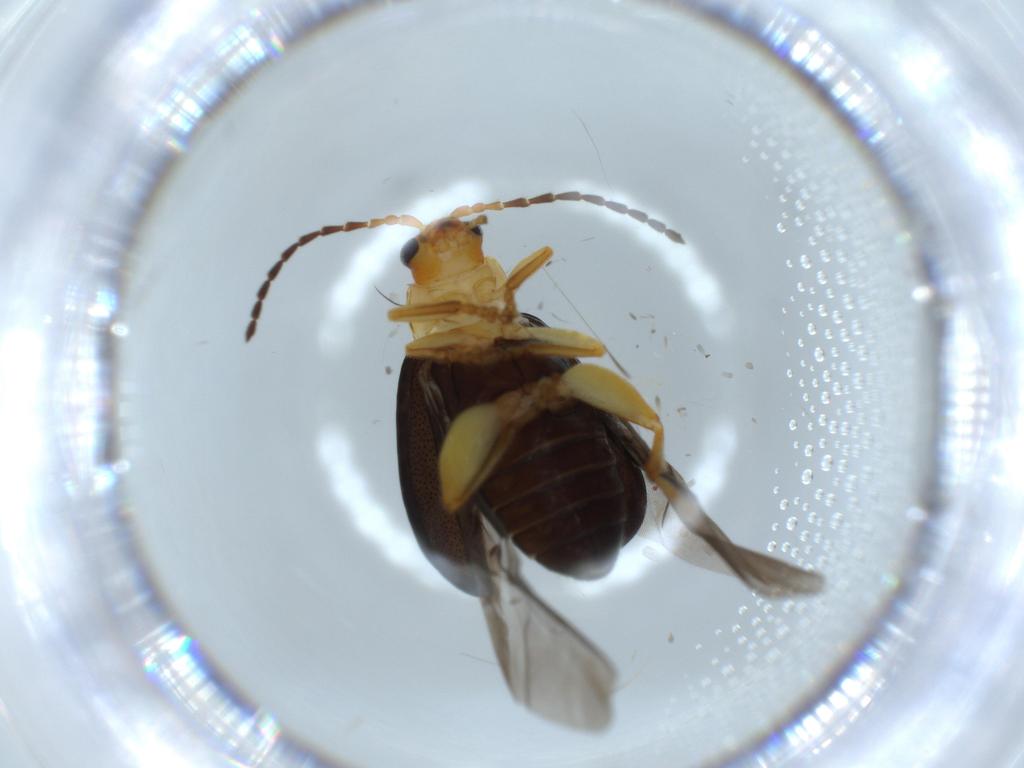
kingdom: Animalia
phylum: Arthropoda
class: Insecta
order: Coleoptera
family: Chrysomelidae
